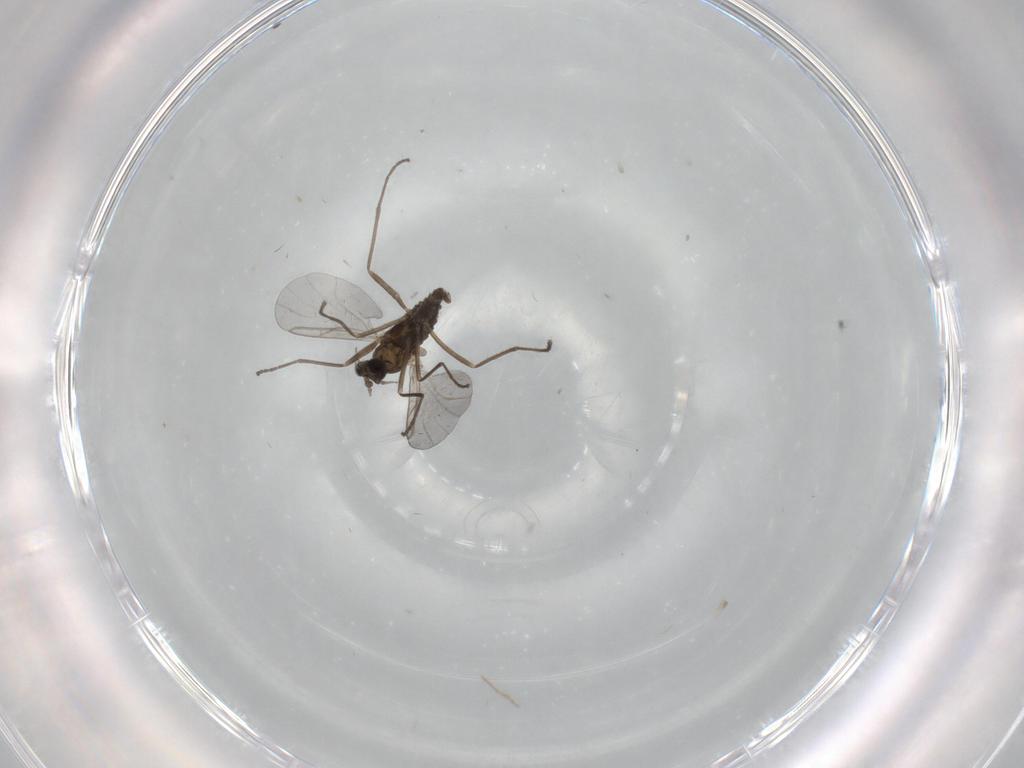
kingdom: Animalia
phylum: Arthropoda
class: Insecta
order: Diptera
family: Cecidomyiidae
